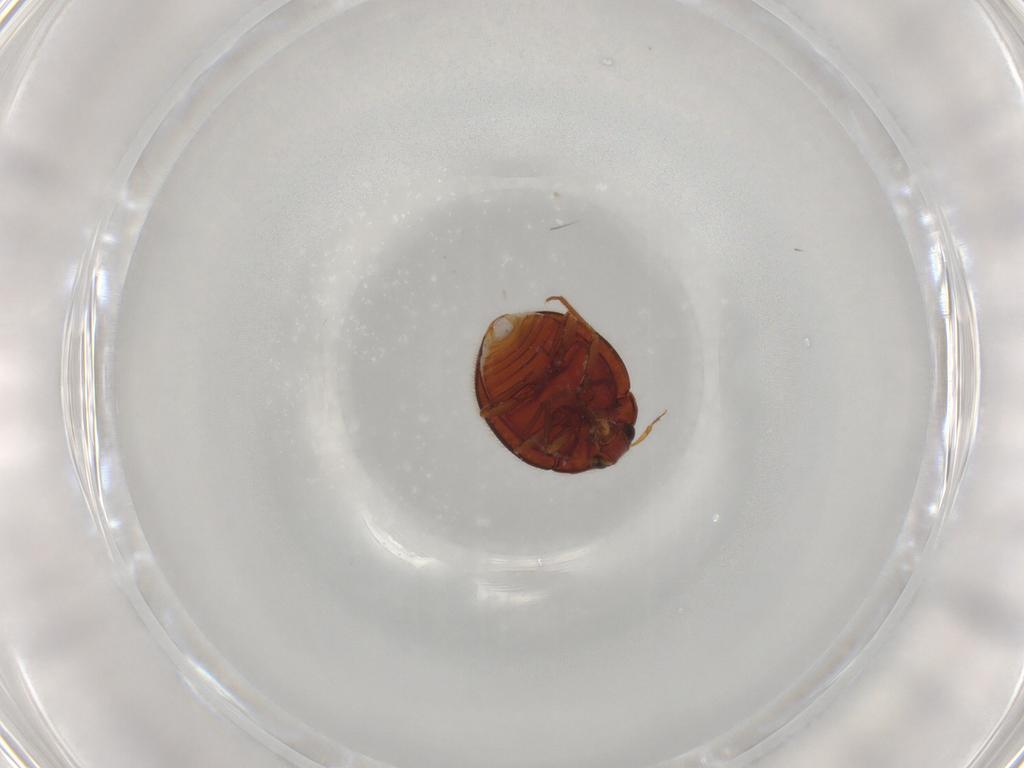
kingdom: Animalia
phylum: Arthropoda
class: Insecta
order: Coleoptera
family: Anamorphidae
